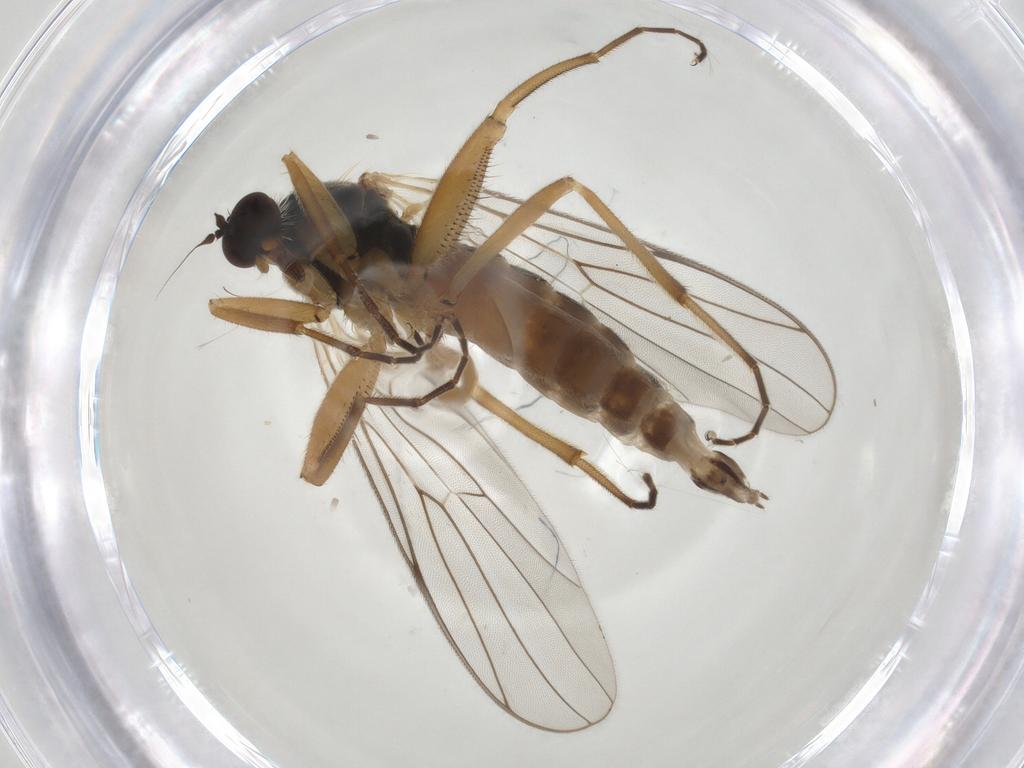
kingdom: Animalia
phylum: Arthropoda
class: Insecta
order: Diptera
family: Hybotidae
